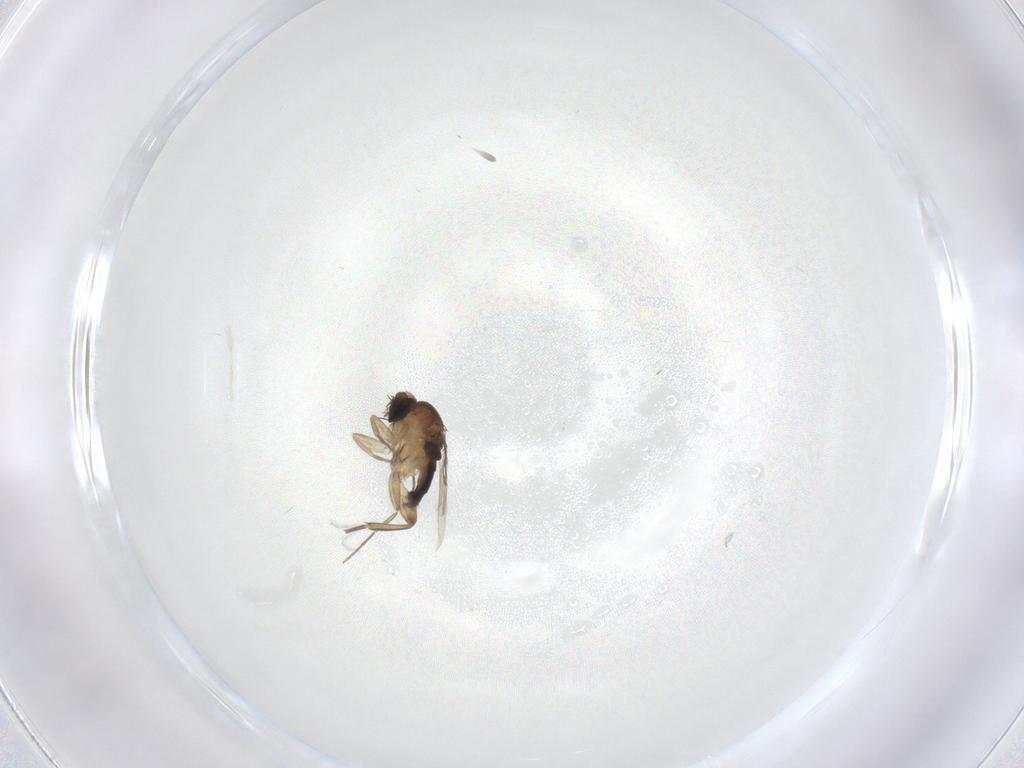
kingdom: Animalia
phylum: Arthropoda
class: Insecta
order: Diptera
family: Phoridae
